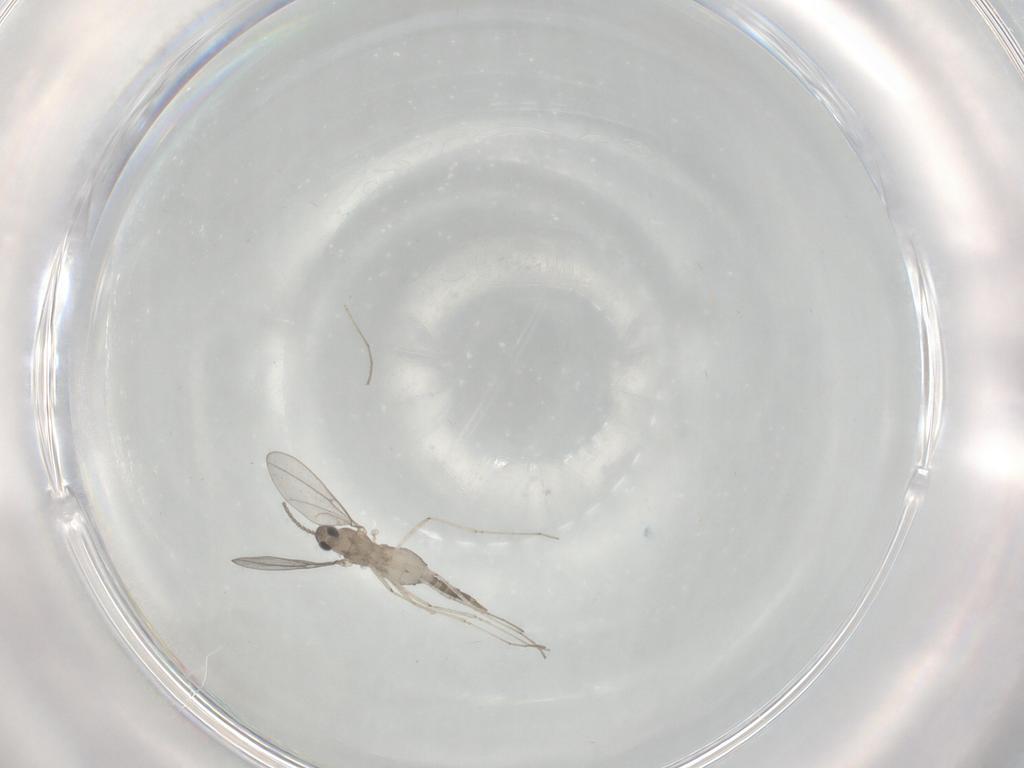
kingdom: Animalia
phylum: Arthropoda
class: Insecta
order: Diptera
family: Cecidomyiidae
